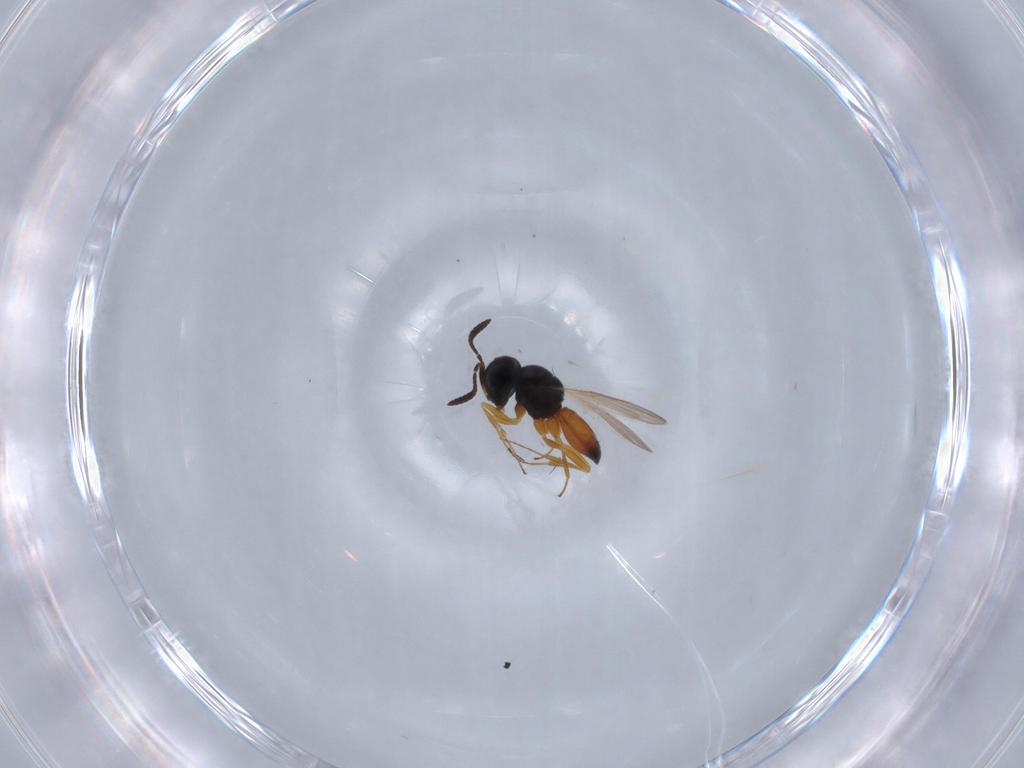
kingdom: Animalia
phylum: Arthropoda
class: Insecta
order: Hymenoptera
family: Scelionidae
